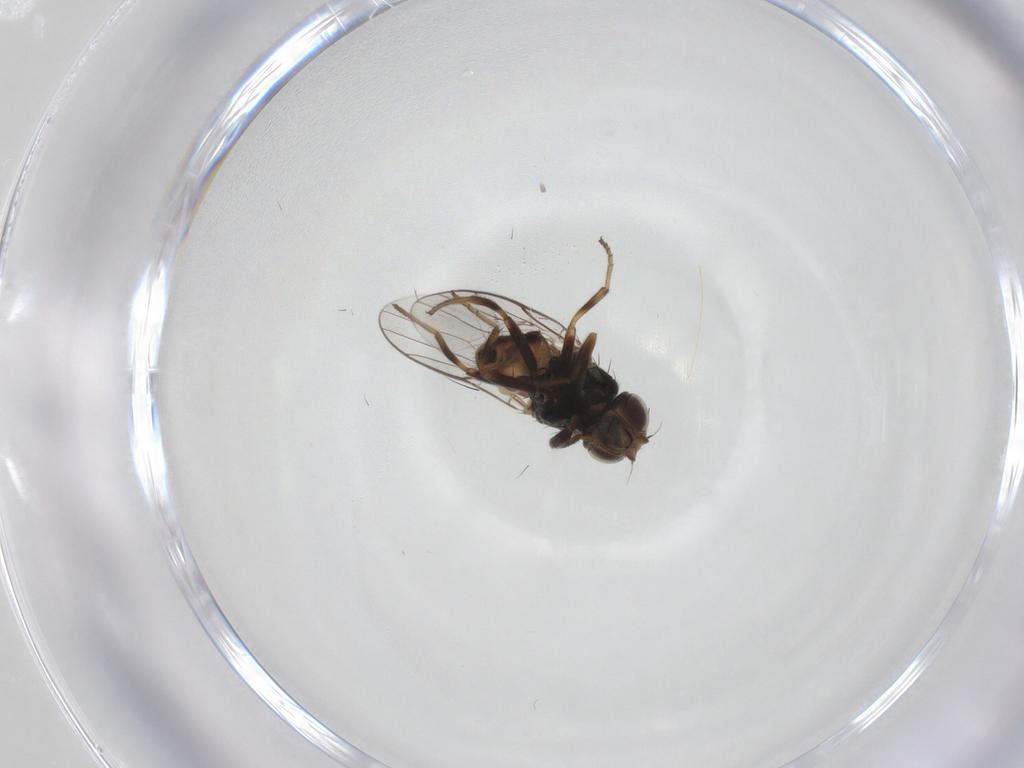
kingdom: Animalia
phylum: Arthropoda
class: Insecta
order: Diptera
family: Chloropidae
